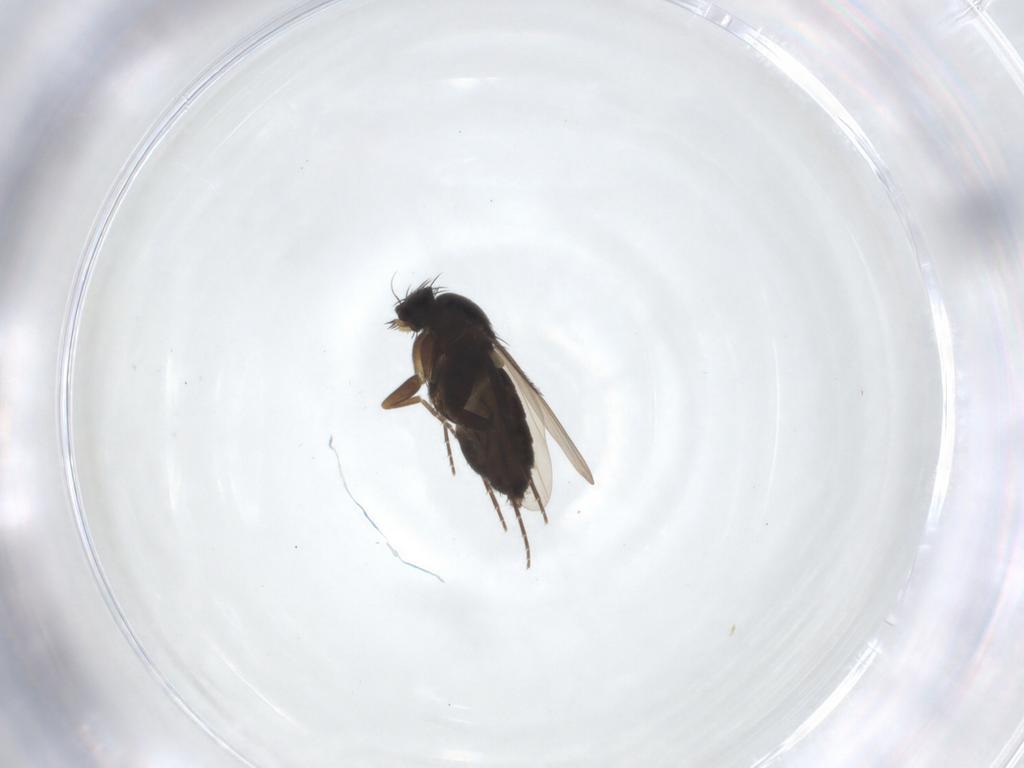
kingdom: Animalia
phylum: Arthropoda
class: Insecta
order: Diptera
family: Phoridae
